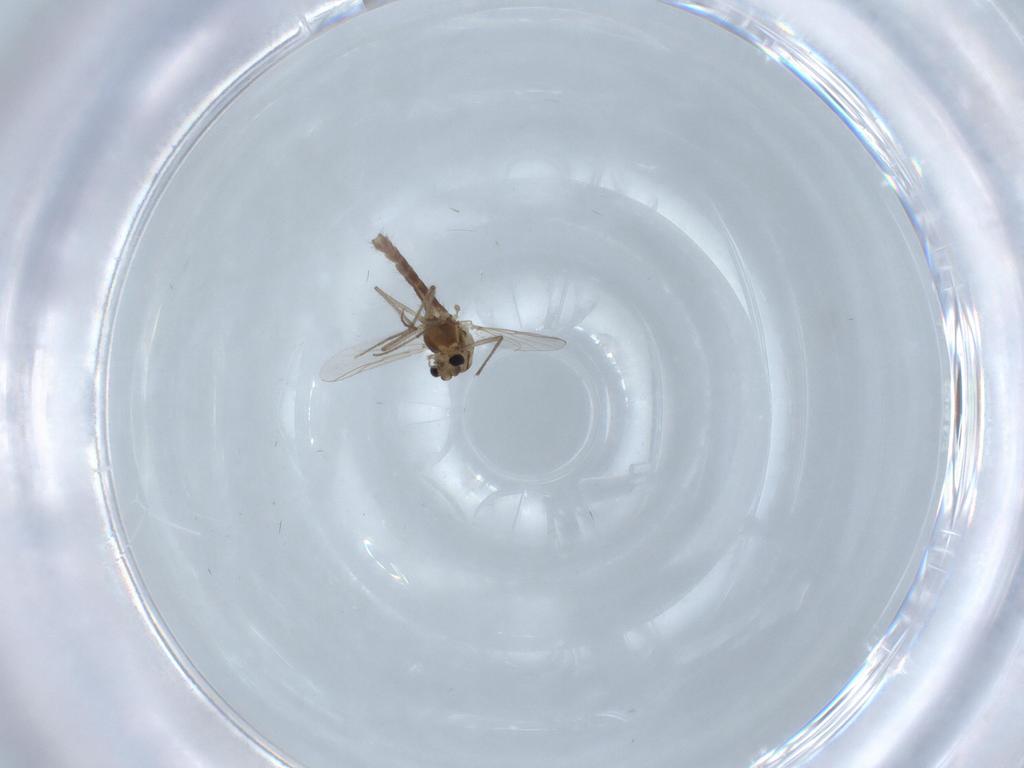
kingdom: Animalia
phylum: Arthropoda
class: Insecta
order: Diptera
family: Chironomidae
